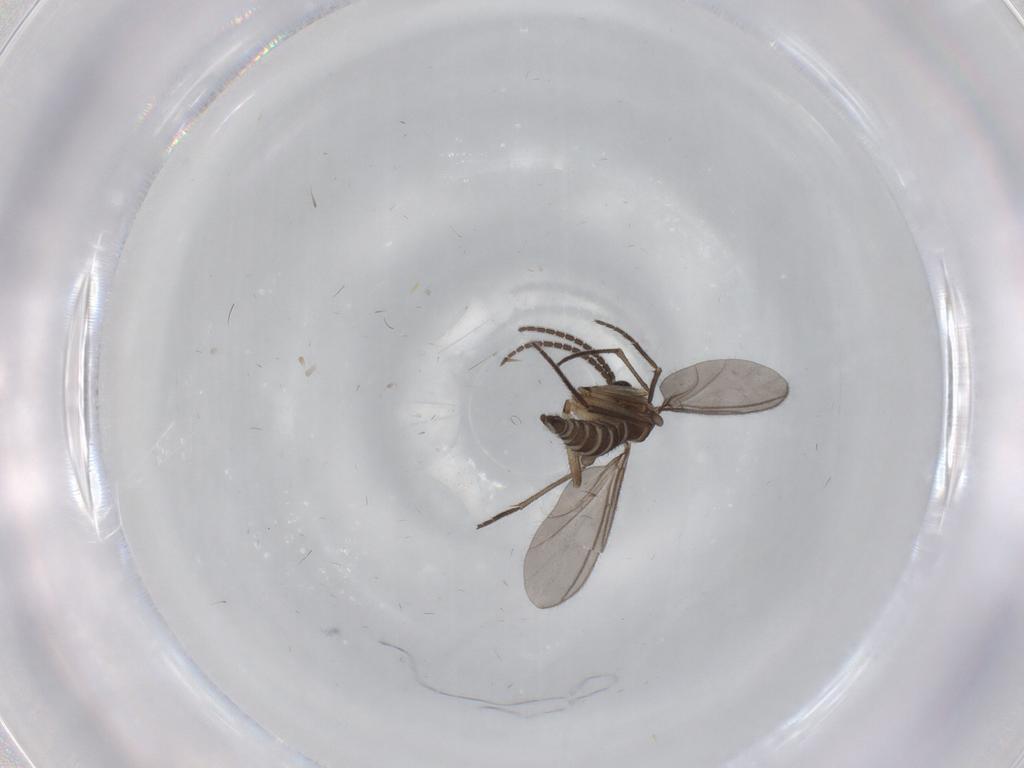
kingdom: Animalia
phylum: Arthropoda
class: Insecta
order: Diptera
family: Sciaridae
